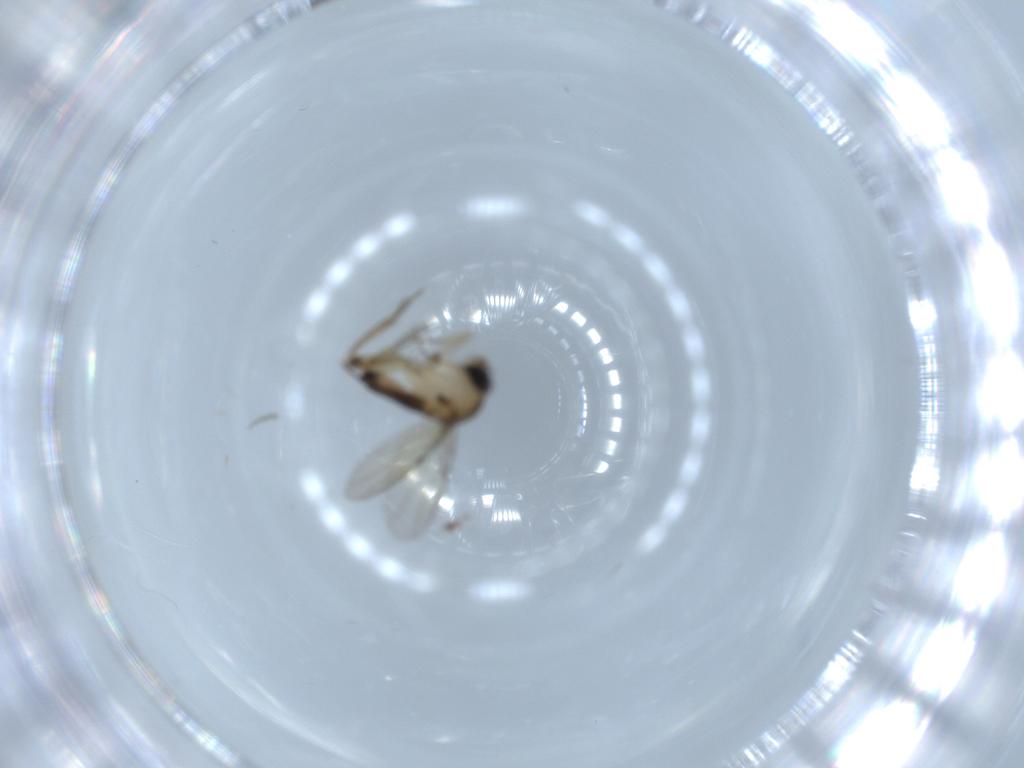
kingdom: Animalia
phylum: Arthropoda
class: Insecta
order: Diptera
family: Phoridae
